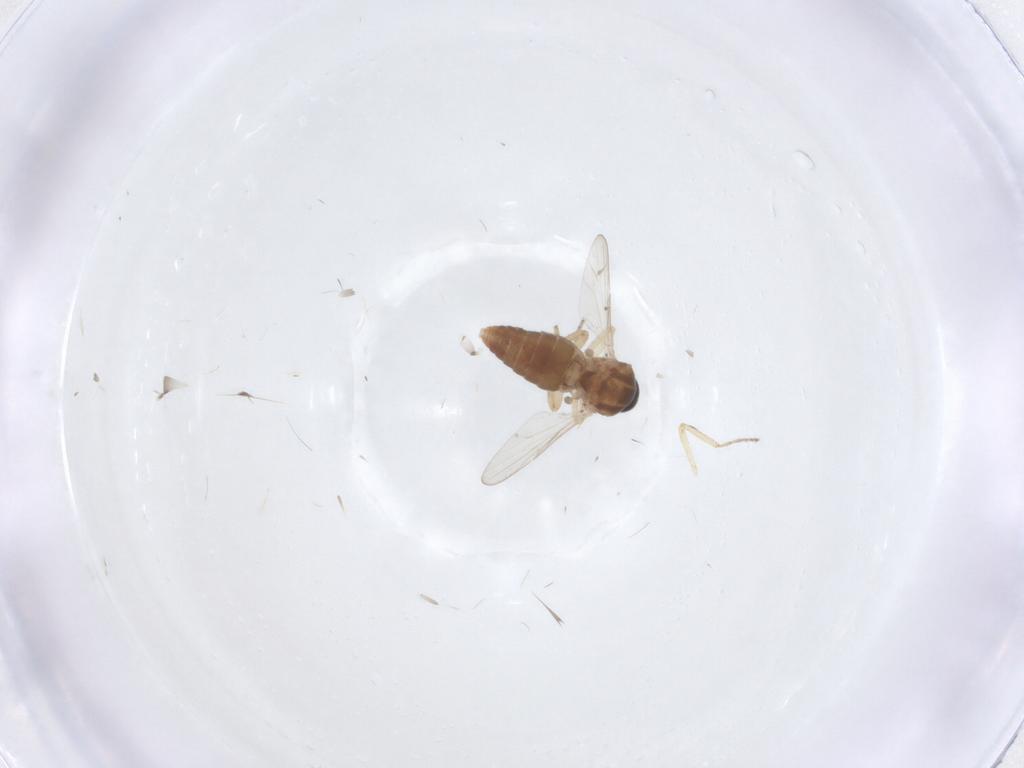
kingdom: Animalia
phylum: Arthropoda
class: Insecta
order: Diptera
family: Ceratopogonidae
